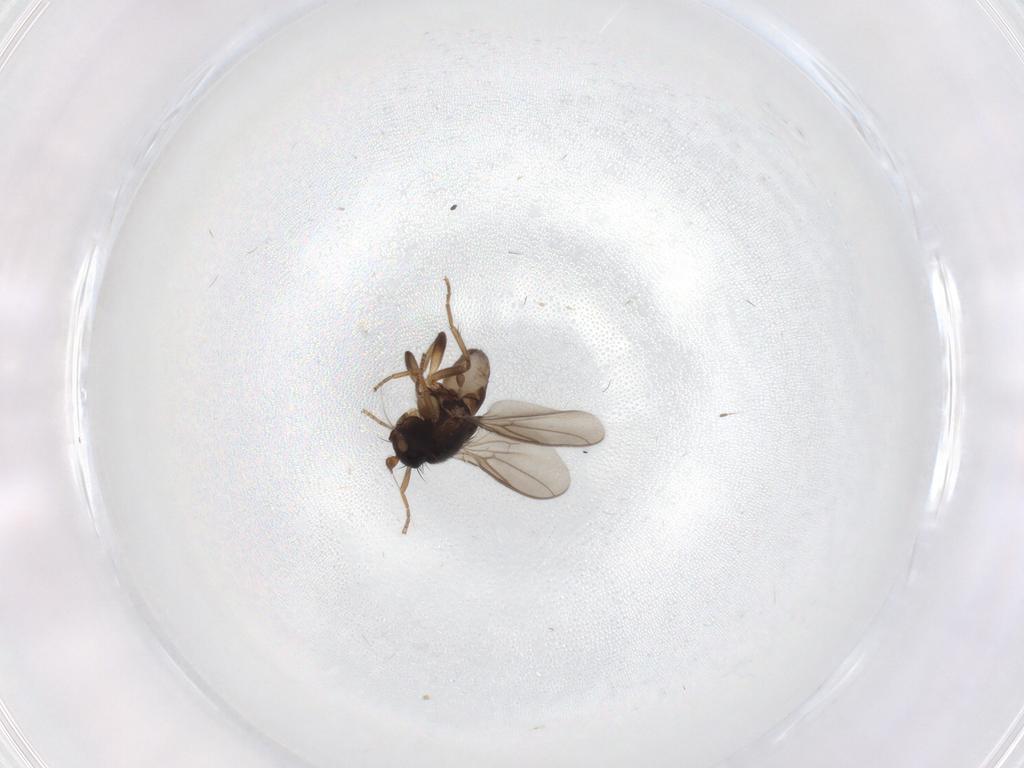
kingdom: Animalia
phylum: Arthropoda
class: Insecta
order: Diptera
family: Sphaeroceridae
